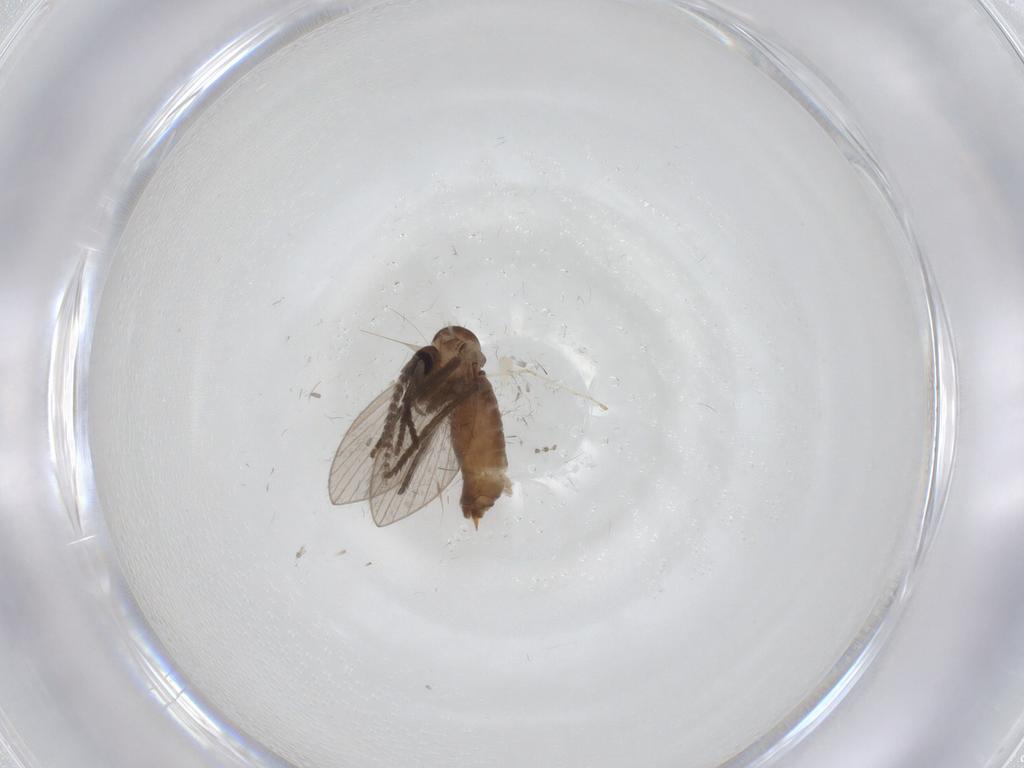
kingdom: Animalia
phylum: Arthropoda
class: Insecta
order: Diptera
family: Psychodidae
